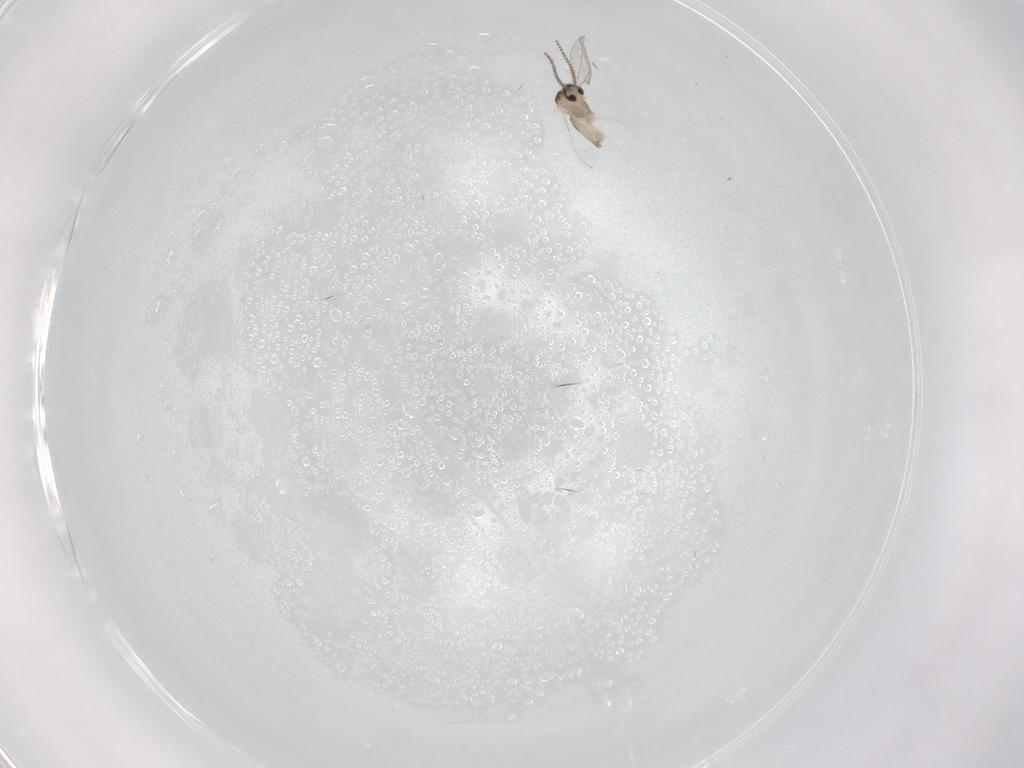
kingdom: Animalia
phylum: Arthropoda
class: Insecta
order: Diptera
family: Cecidomyiidae
